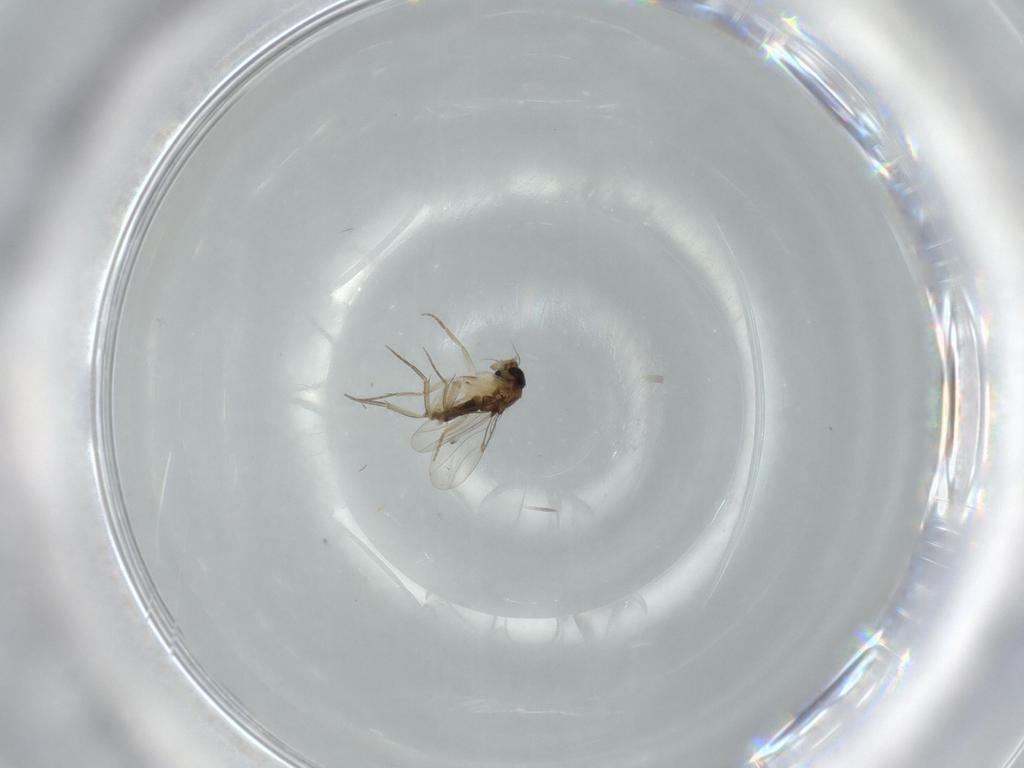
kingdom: Animalia
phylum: Arthropoda
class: Insecta
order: Diptera
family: Phoridae
